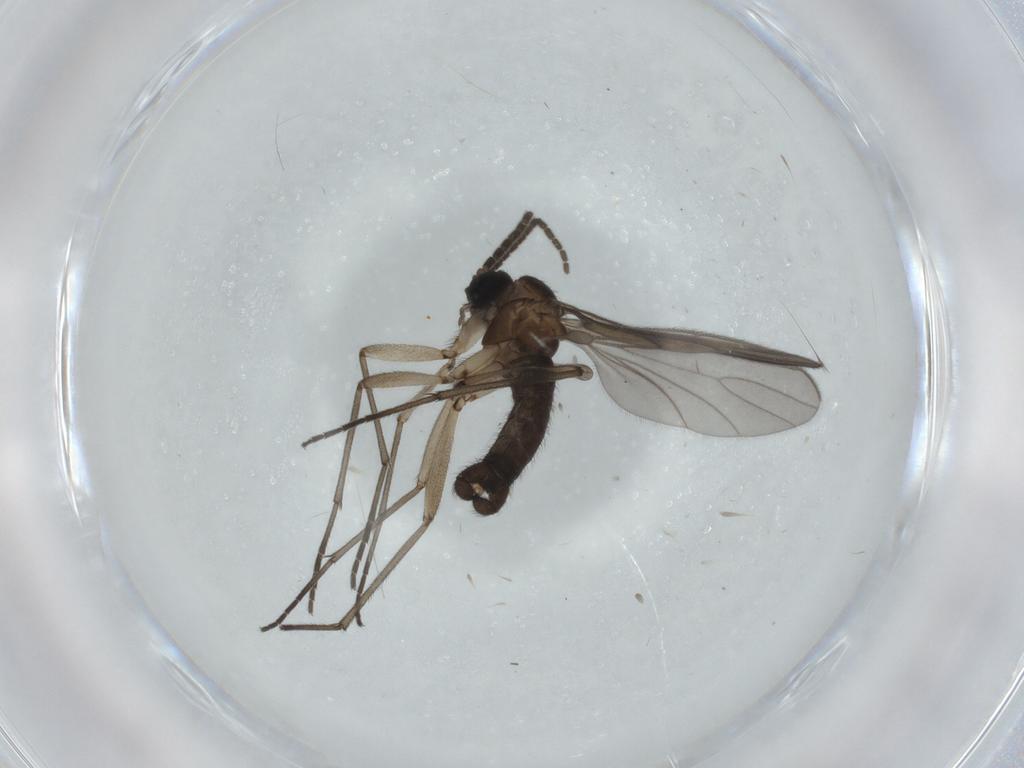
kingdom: Animalia
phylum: Arthropoda
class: Insecta
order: Diptera
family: Sciaridae
